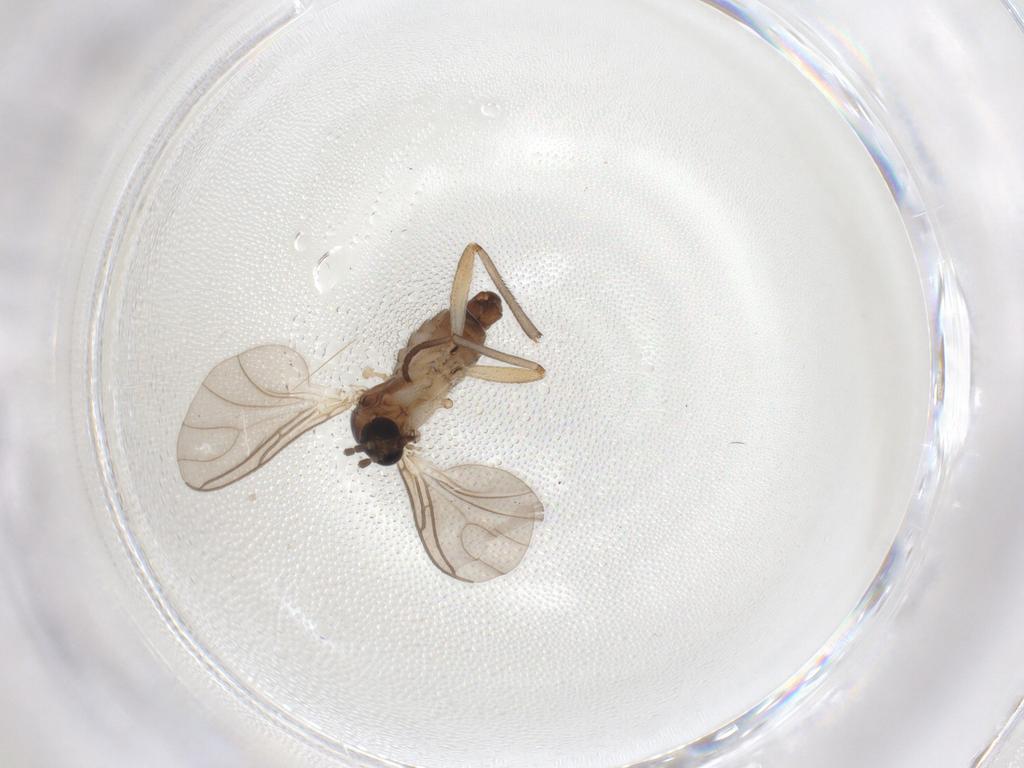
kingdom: Animalia
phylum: Arthropoda
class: Insecta
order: Diptera
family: Sciaridae
